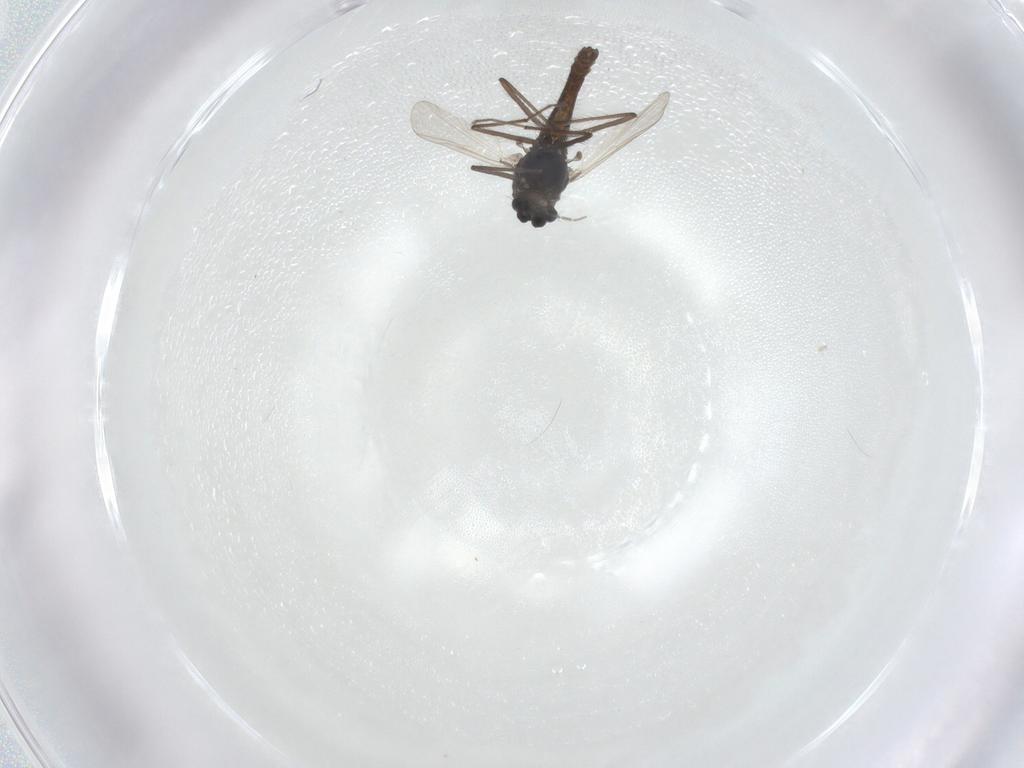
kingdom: Animalia
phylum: Arthropoda
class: Insecta
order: Diptera
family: Chironomidae
